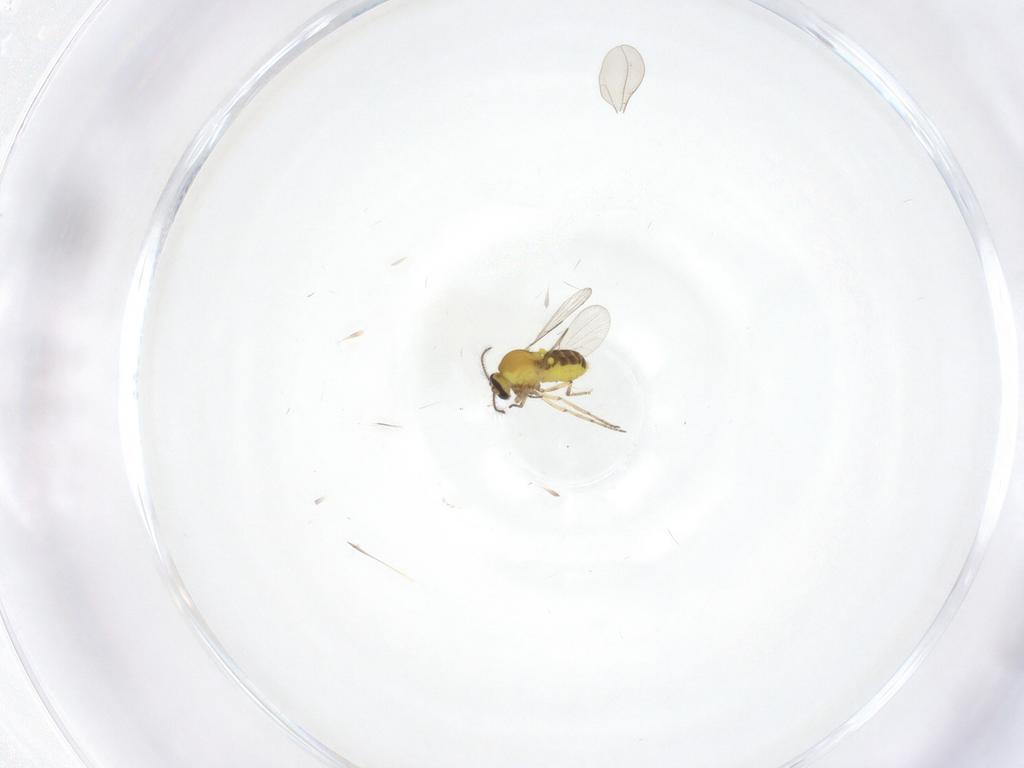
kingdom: Animalia
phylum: Arthropoda
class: Insecta
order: Diptera
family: Ceratopogonidae
